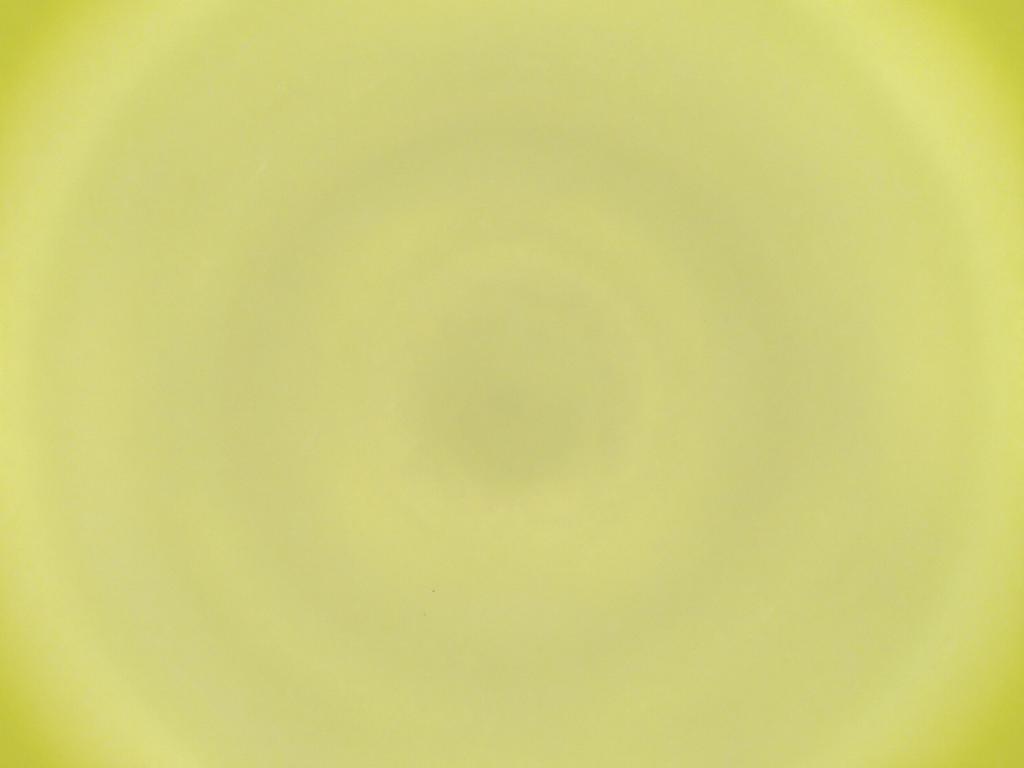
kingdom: Animalia
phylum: Arthropoda
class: Insecta
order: Diptera
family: Cecidomyiidae
